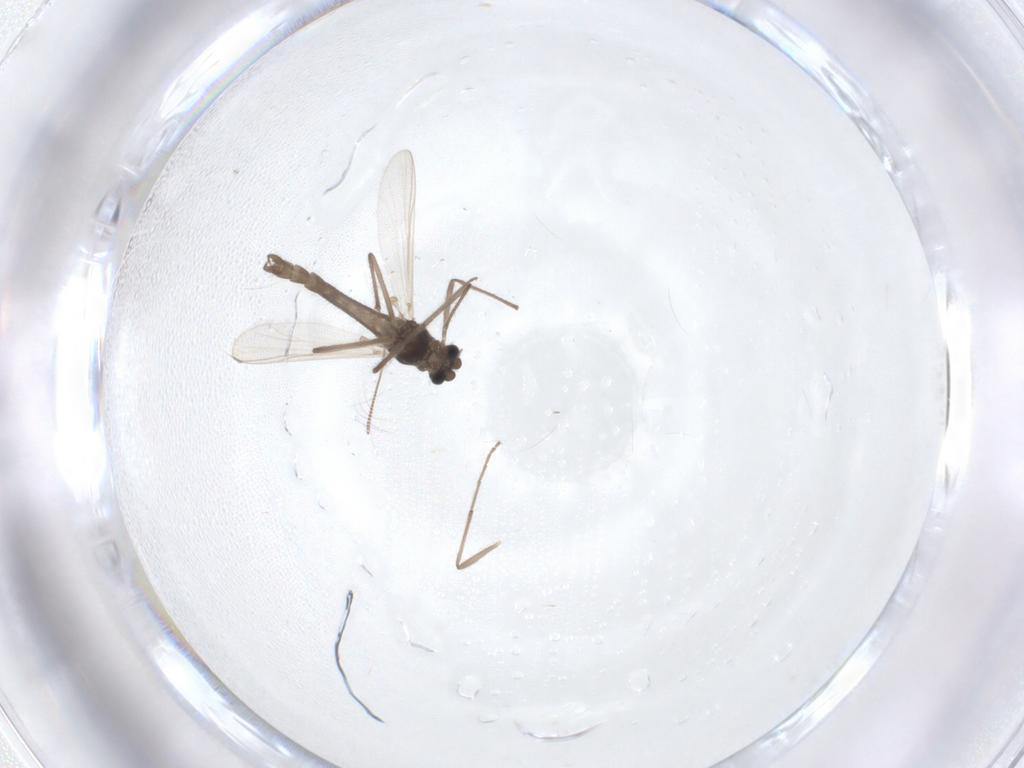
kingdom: Animalia
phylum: Arthropoda
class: Insecta
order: Diptera
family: Chironomidae
